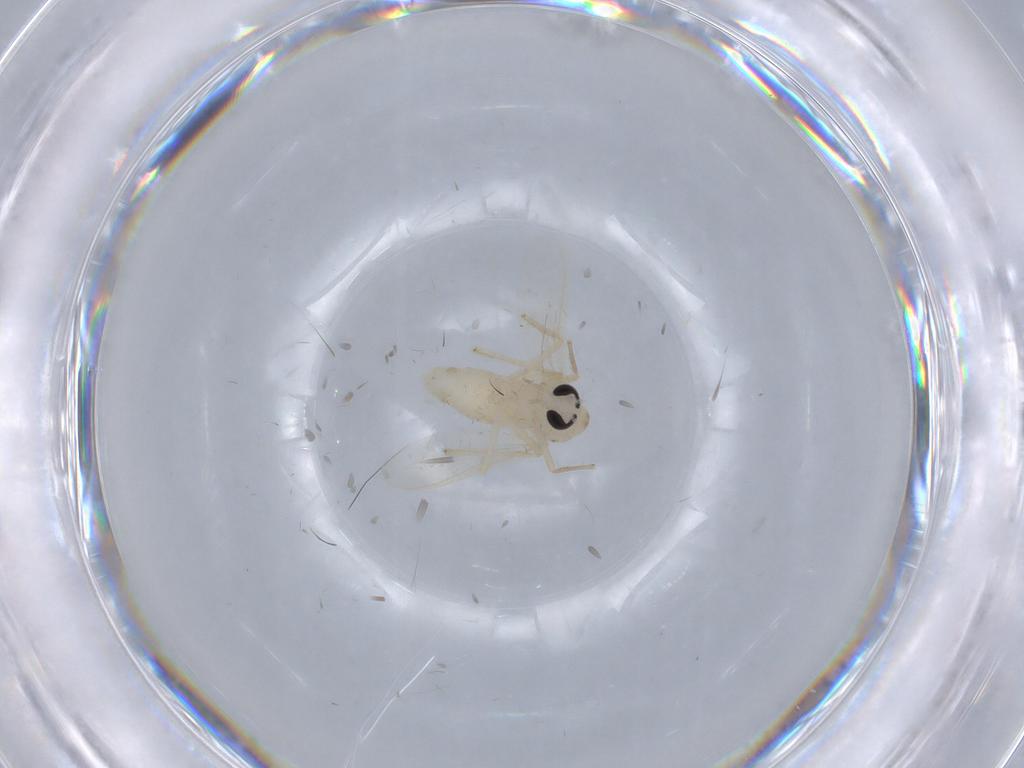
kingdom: Animalia
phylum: Arthropoda
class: Insecta
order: Diptera
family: Chironomidae
